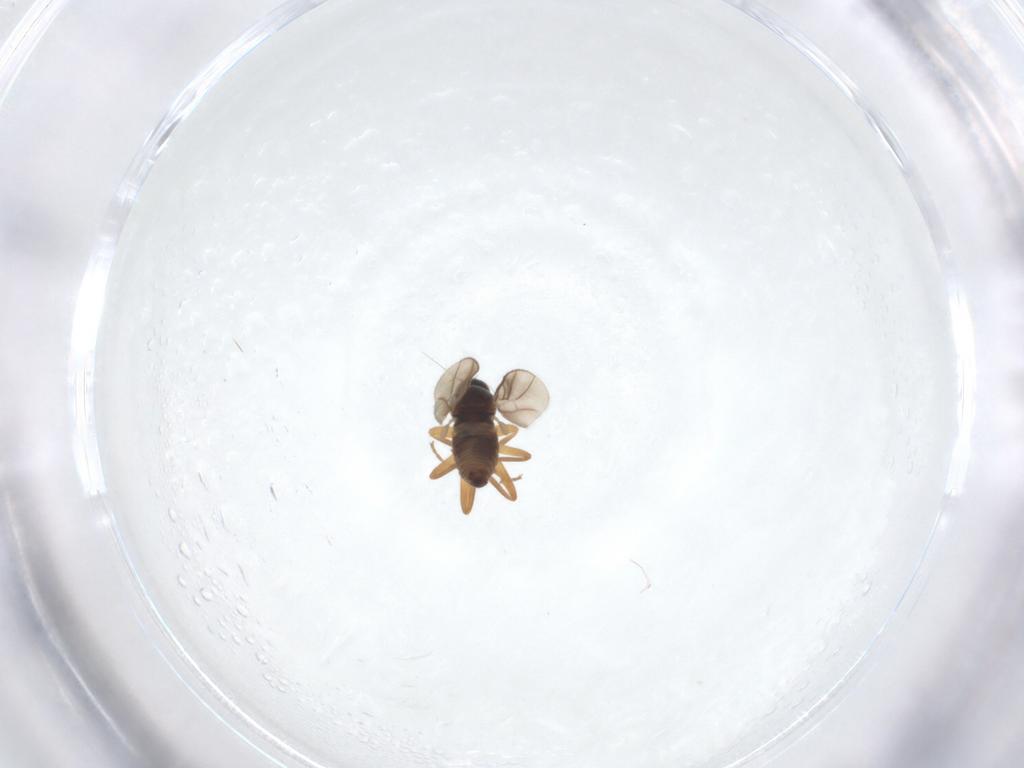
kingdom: Animalia
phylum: Arthropoda
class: Insecta
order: Diptera
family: Hybotidae
